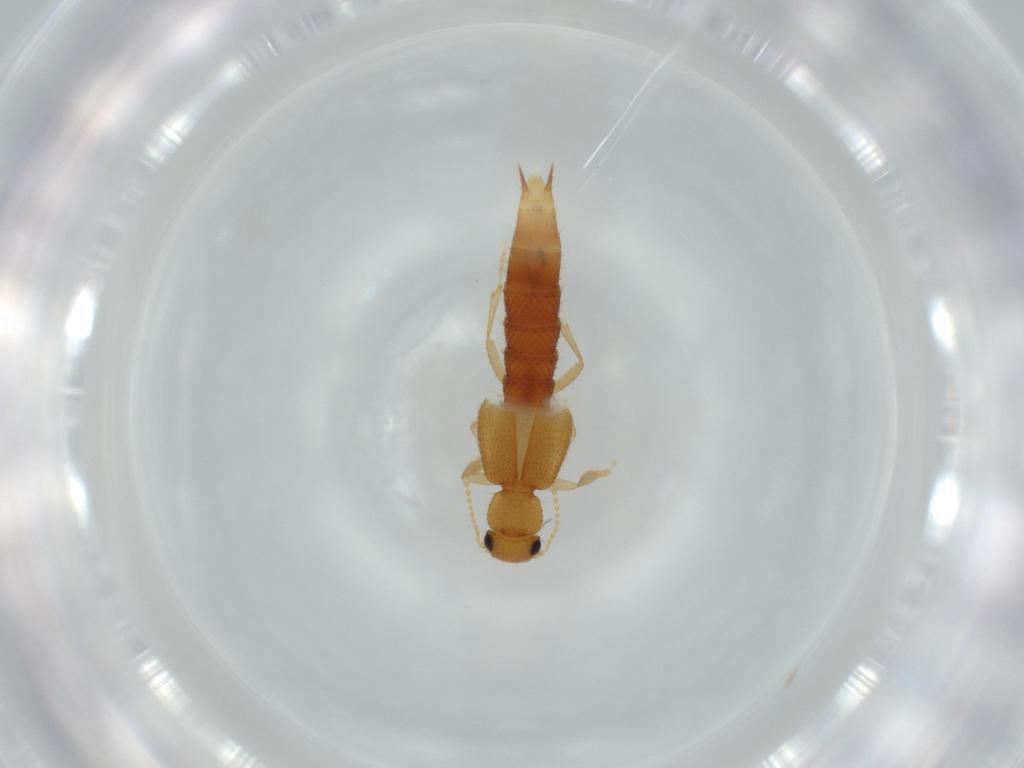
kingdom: Animalia
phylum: Arthropoda
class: Insecta
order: Coleoptera
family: Staphylinidae
